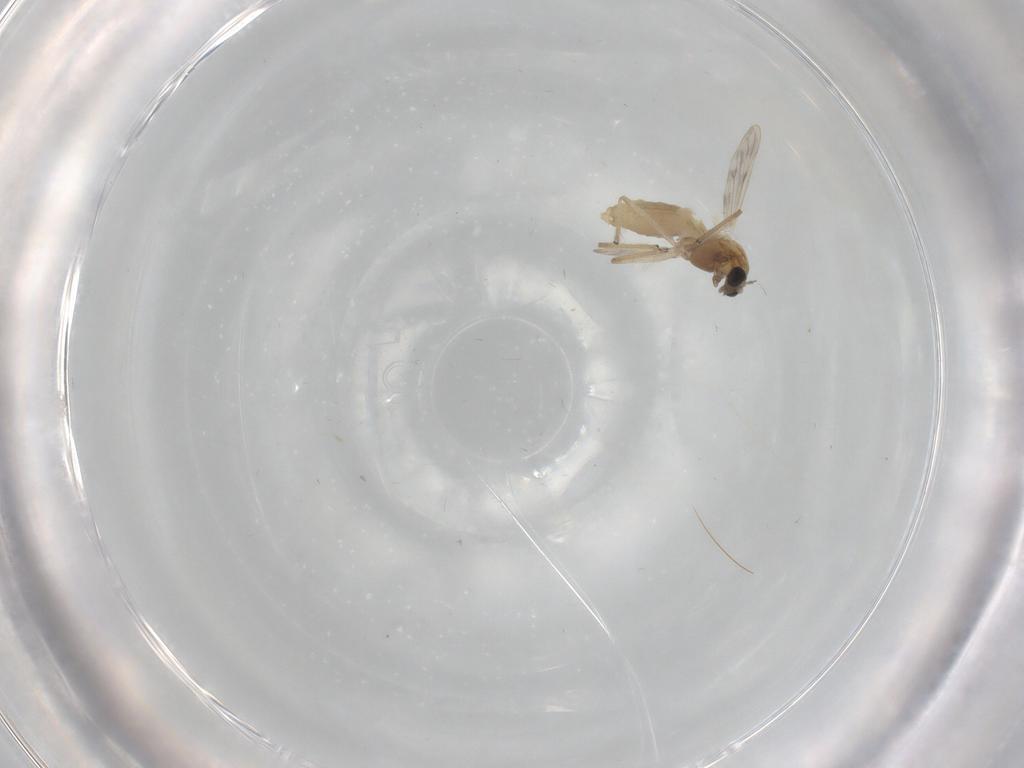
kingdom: Animalia
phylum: Arthropoda
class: Insecta
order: Diptera
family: Chironomidae
